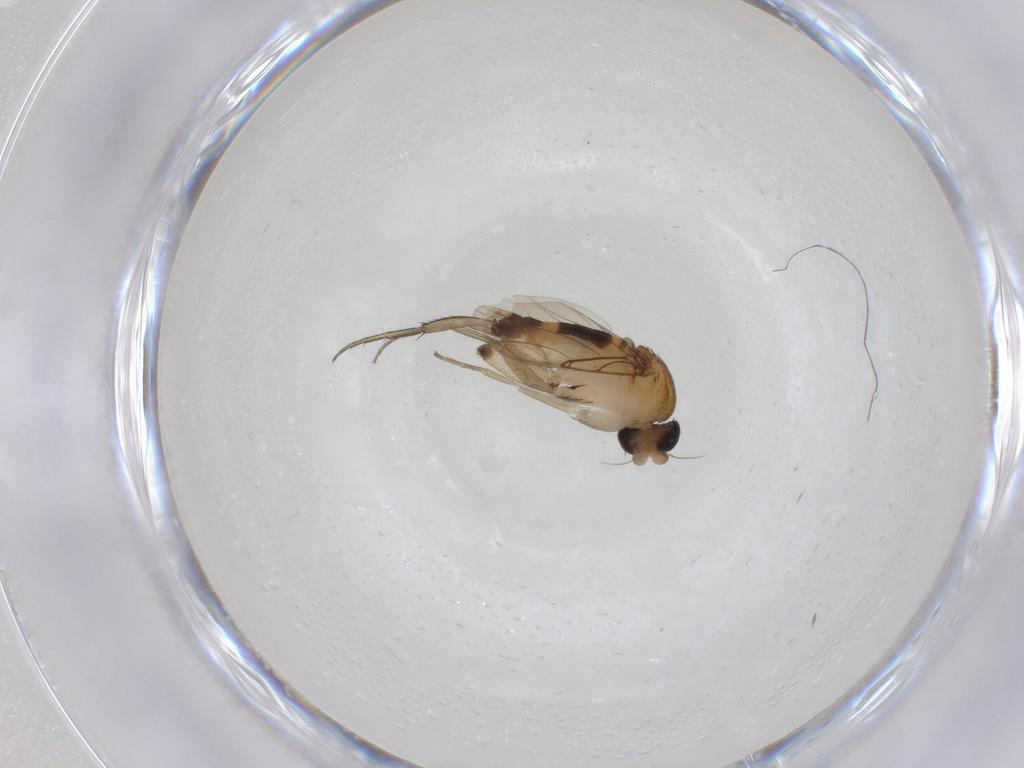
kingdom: Animalia
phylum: Arthropoda
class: Insecta
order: Diptera
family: Phoridae
